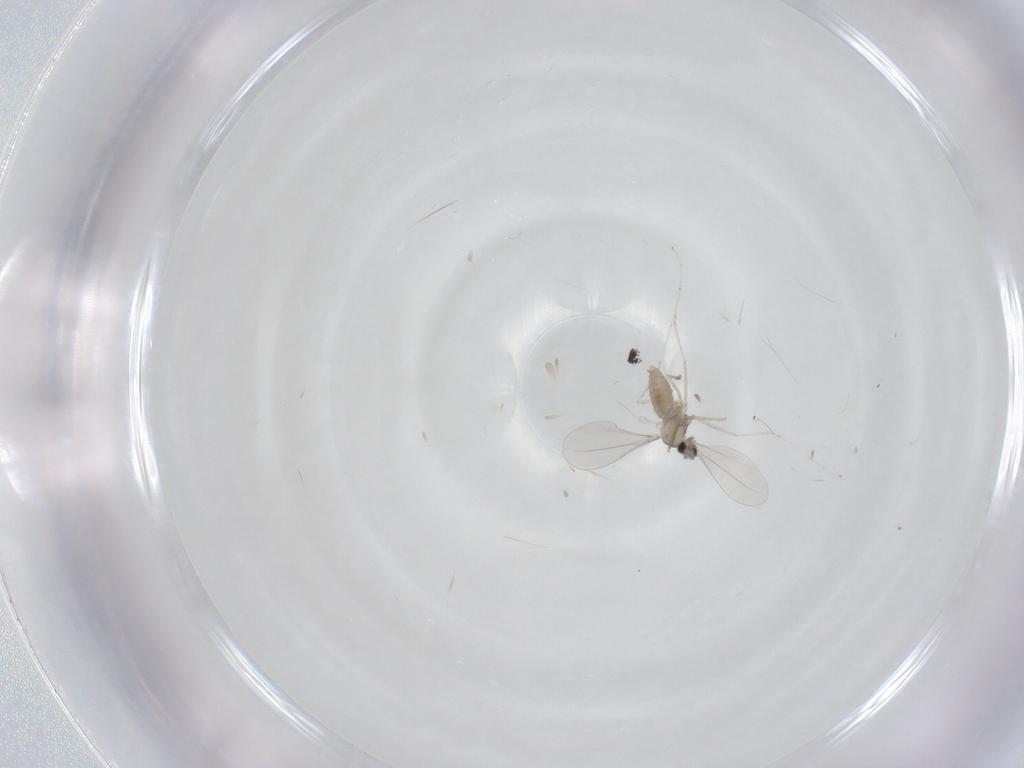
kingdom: Animalia
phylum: Arthropoda
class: Insecta
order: Diptera
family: Cecidomyiidae
